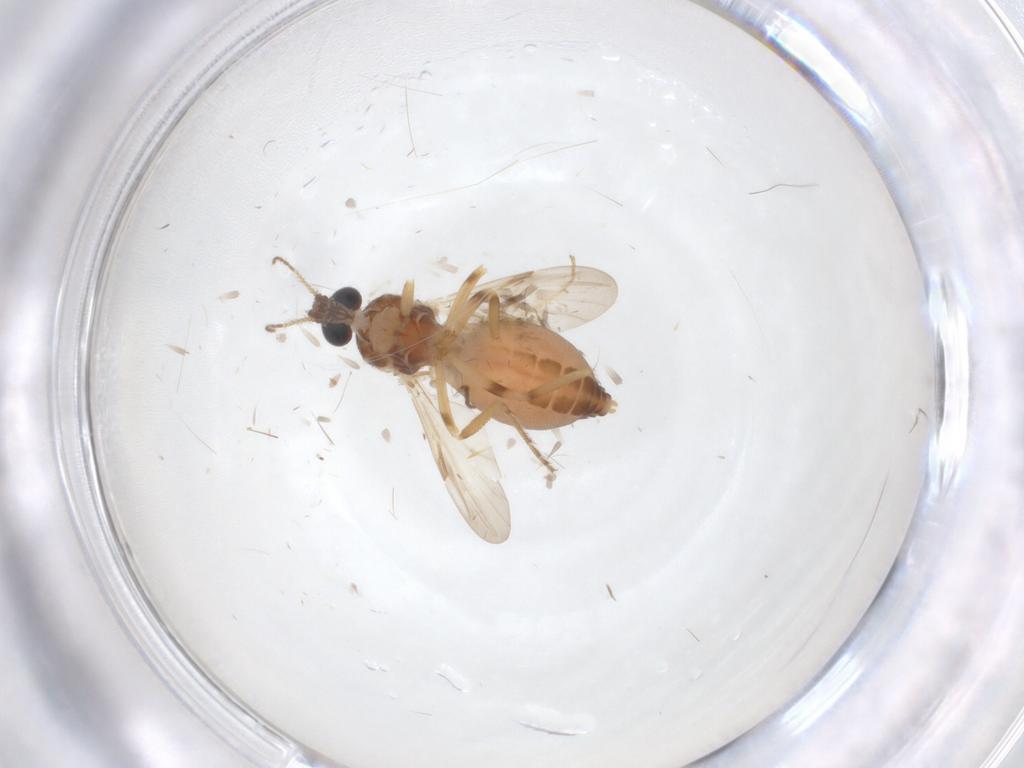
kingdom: Animalia
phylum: Arthropoda
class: Insecta
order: Diptera
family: Ceratopogonidae
